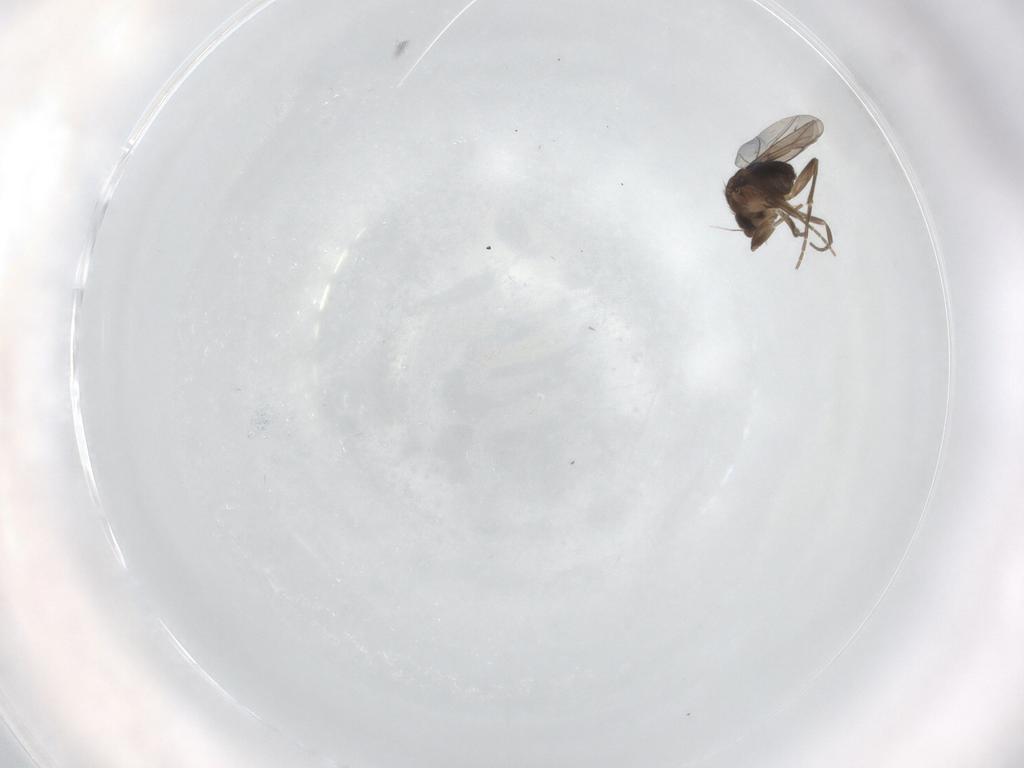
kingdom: Animalia
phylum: Arthropoda
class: Insecta
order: Diptera
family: Phoridae
